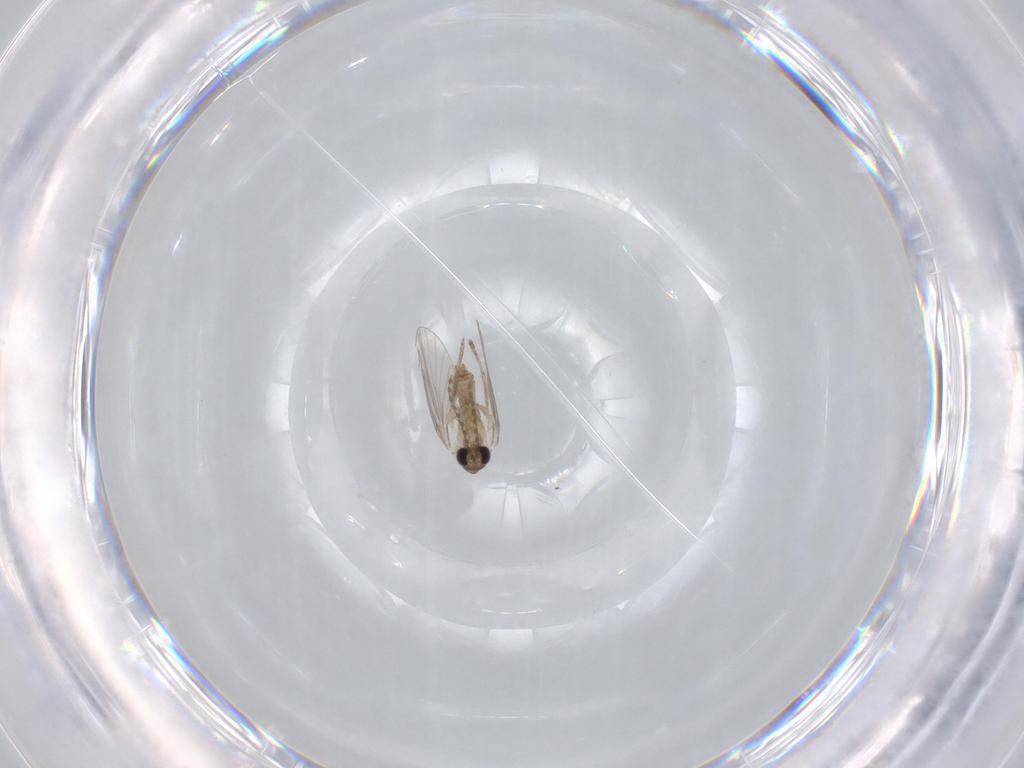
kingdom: Animalia
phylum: Arthropoda
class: Insecta
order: Diptera
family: Psychodidae
